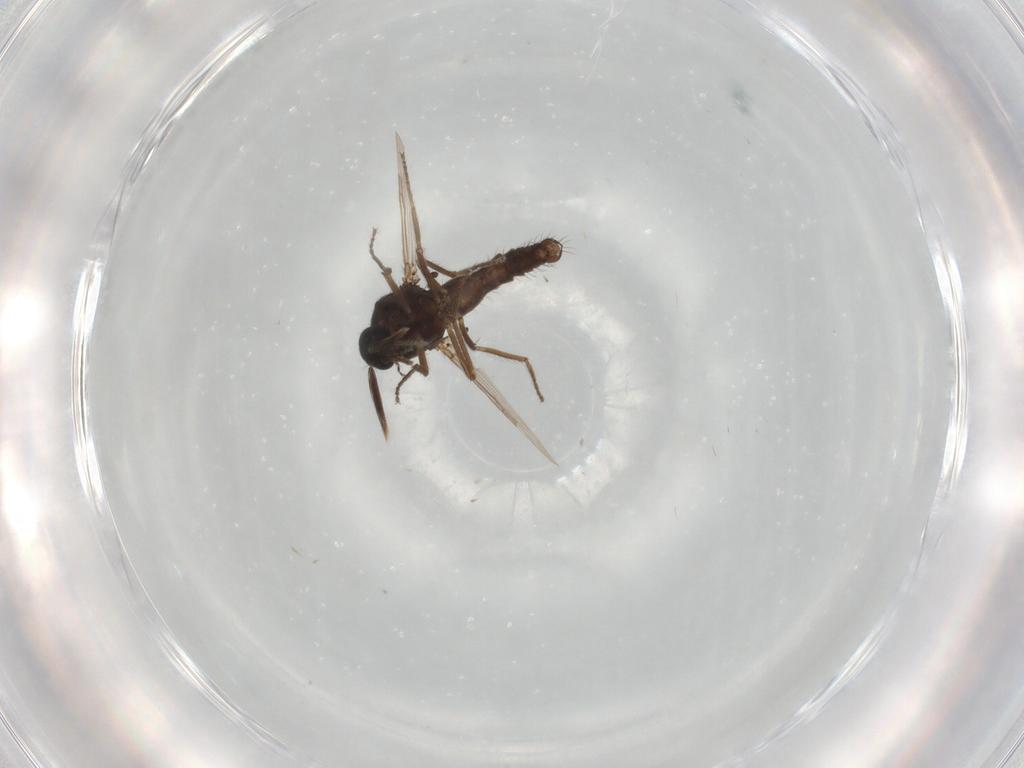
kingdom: Animalia
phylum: Arthropoda
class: Insecta
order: Diptera
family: Ceratopogonidae
